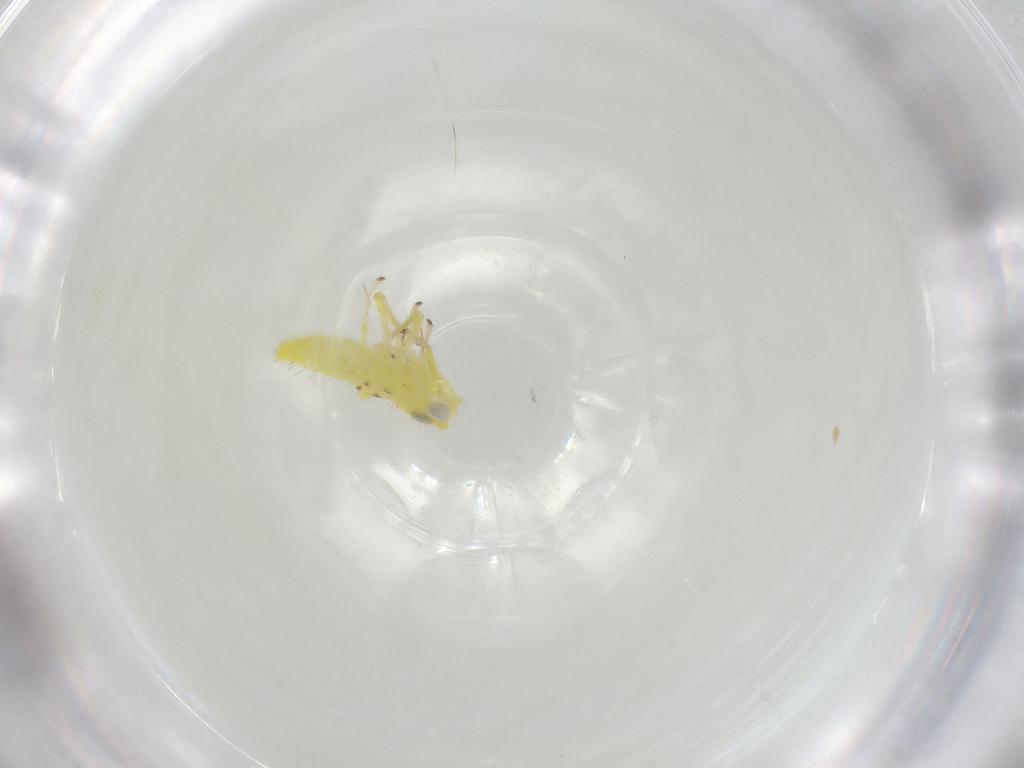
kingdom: Animalia
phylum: Arthropoda
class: Insecta
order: Hemiptera
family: Cicadellidae
